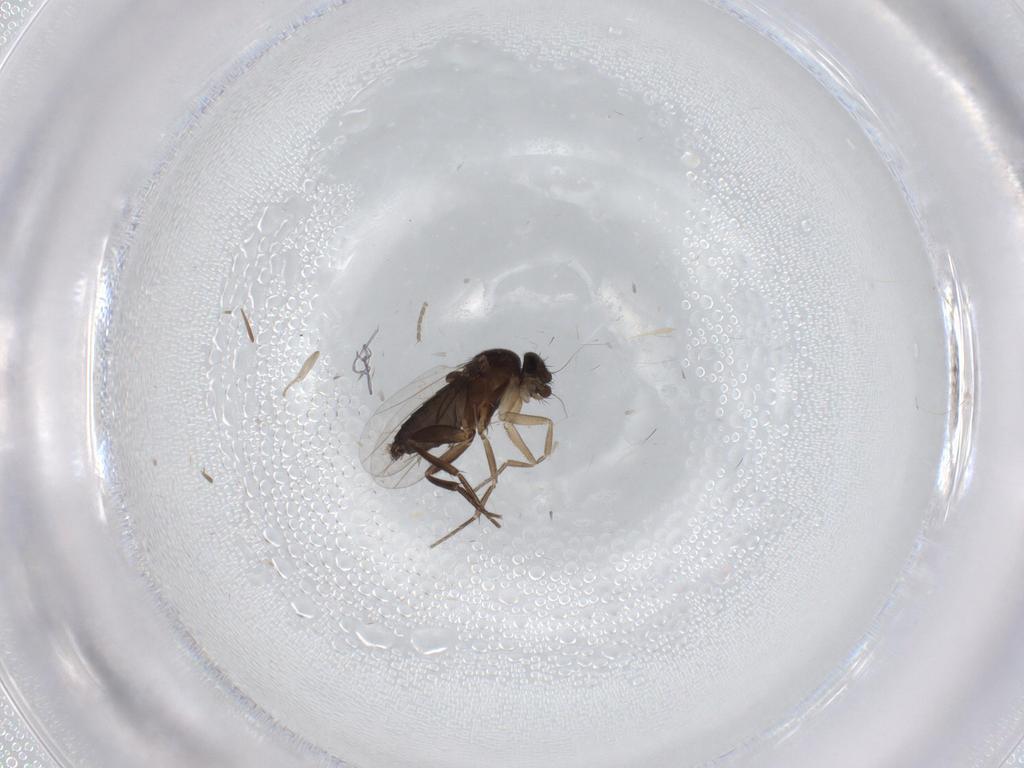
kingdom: Animalia
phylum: Arthropoda
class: Insecta
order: Diptera
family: Phoridae
